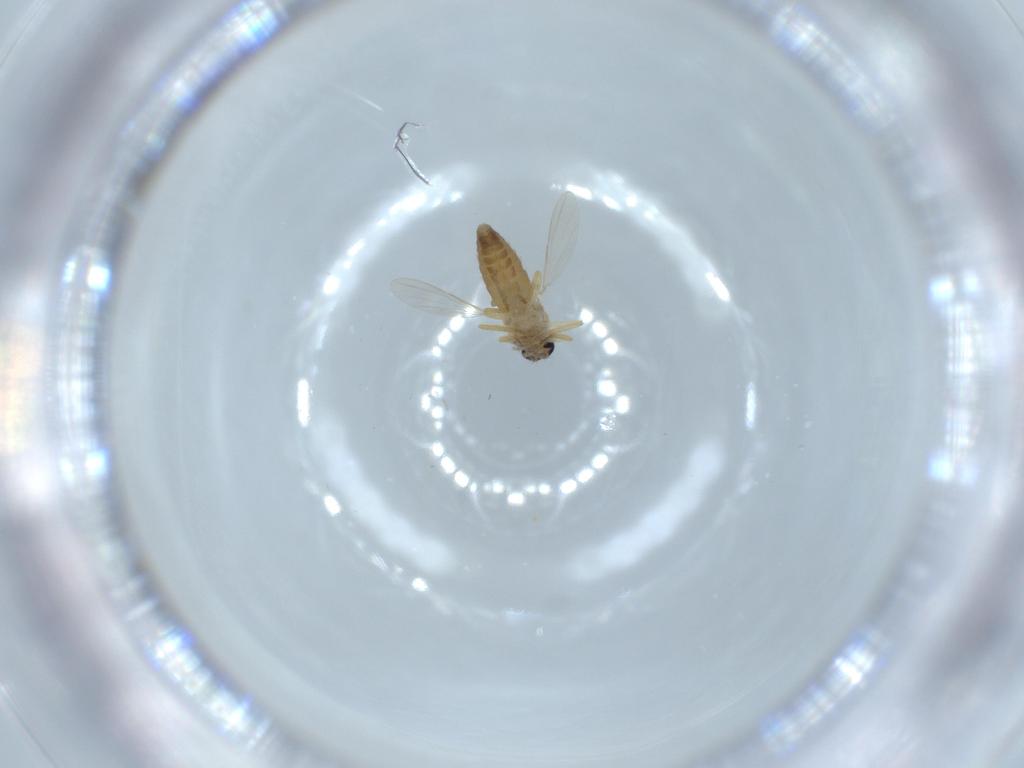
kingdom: Animalia
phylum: Arthropoda
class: Insecta
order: Diptera
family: Ceratopogonidae
